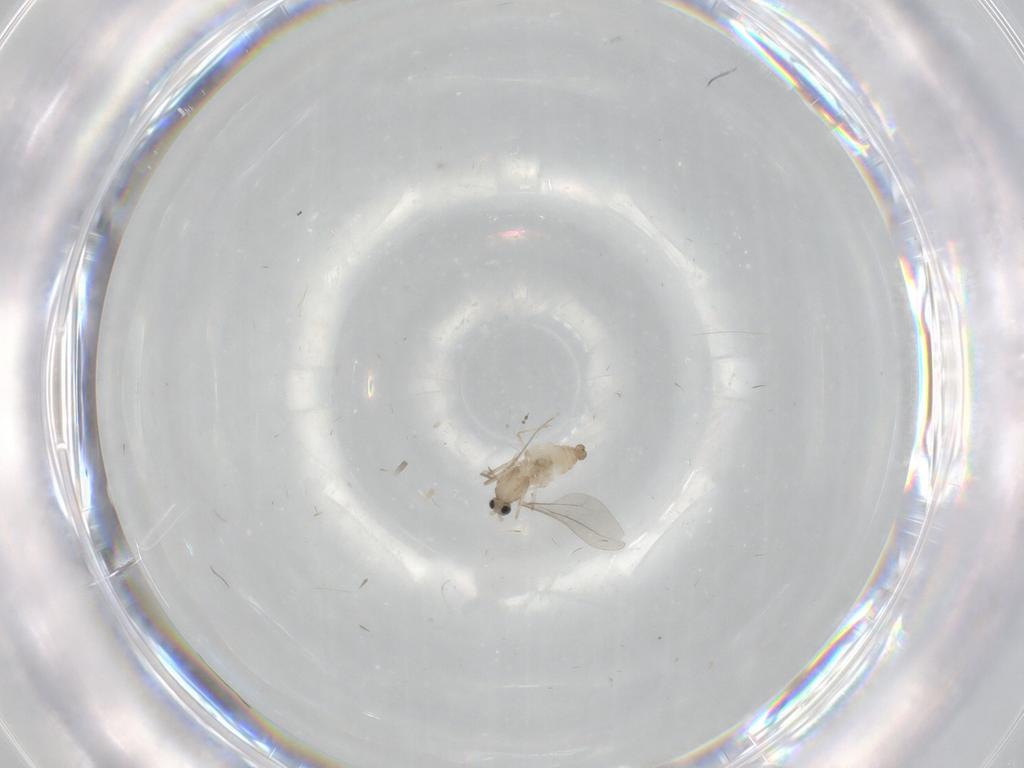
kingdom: Animalia
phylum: Arthropoda
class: Insecta
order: Diptera
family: Cecidomyiidae
